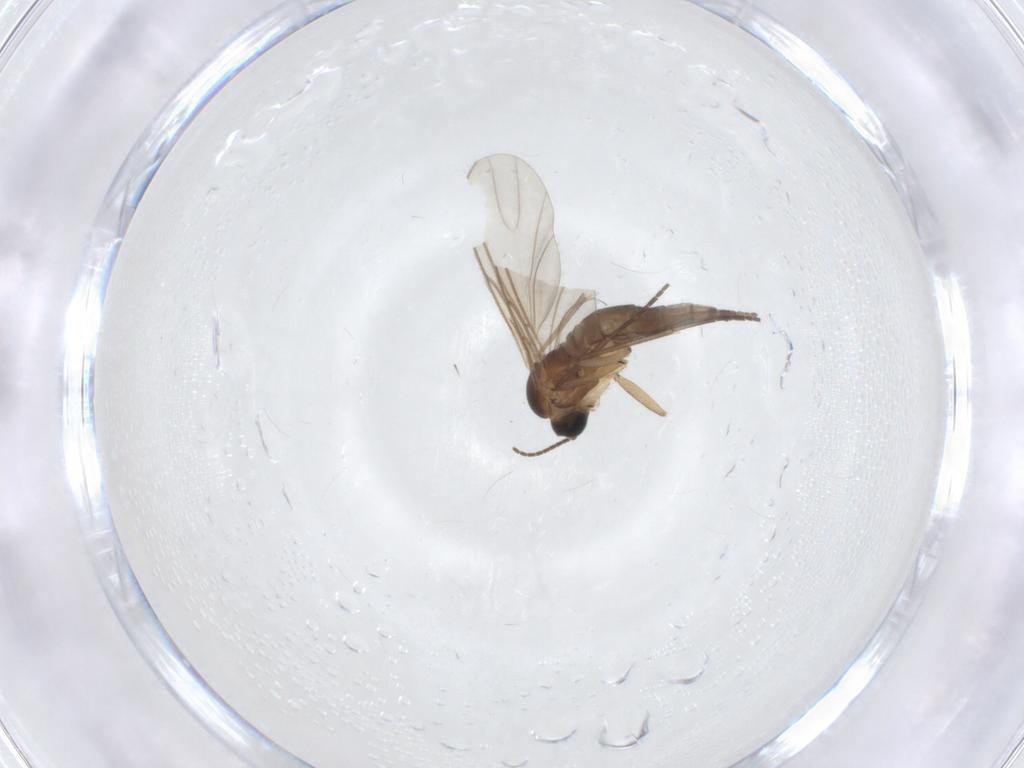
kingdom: Animalia
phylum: Arthropoda
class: Insecta
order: Diptera
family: Sciaridae
